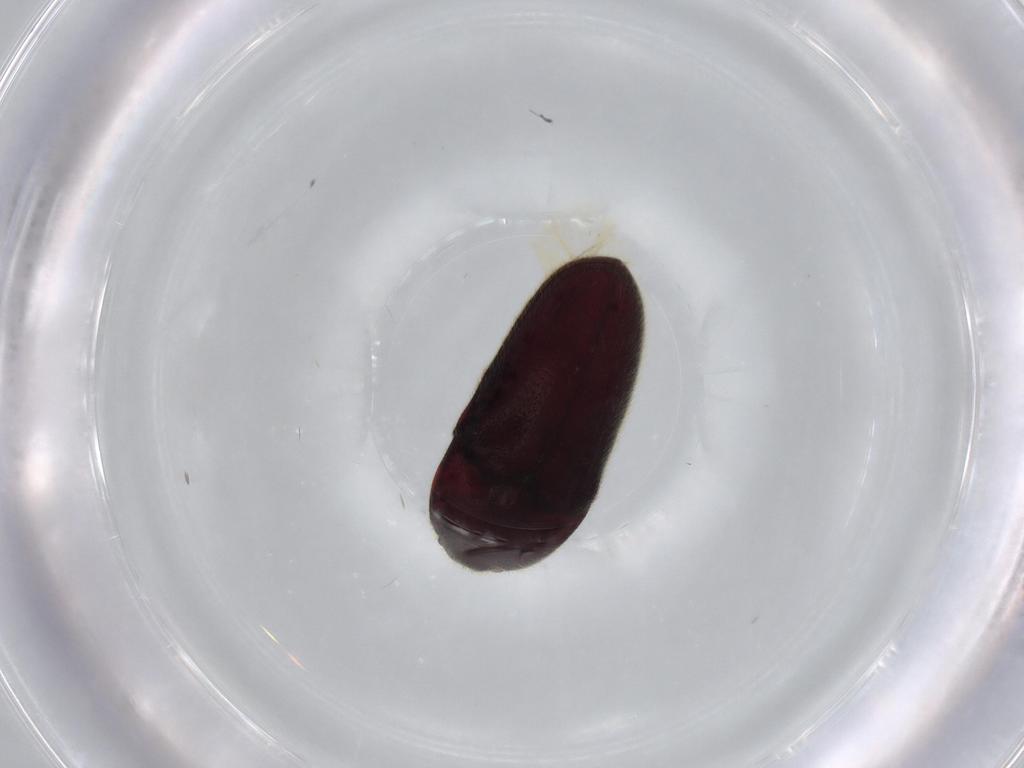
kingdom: Animalia
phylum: Arthropoda
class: Insecta
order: Coleoptera
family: Throscidae
